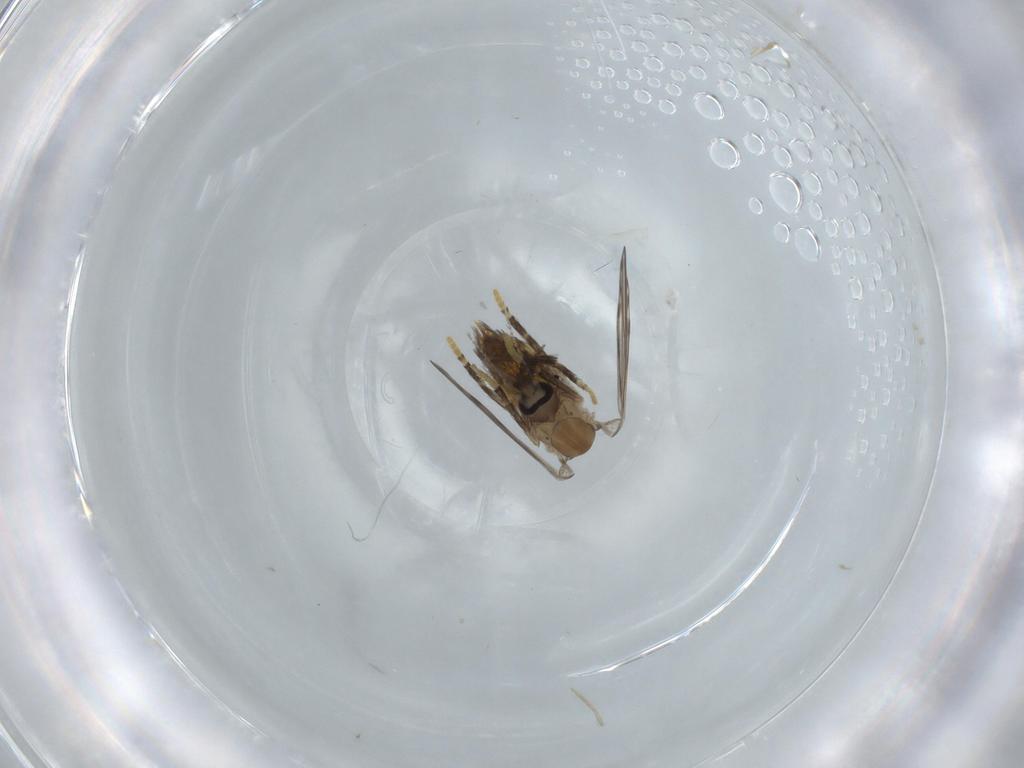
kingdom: Animalia
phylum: Arthropoda
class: Insecta
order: Diptera
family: Psychodidae
